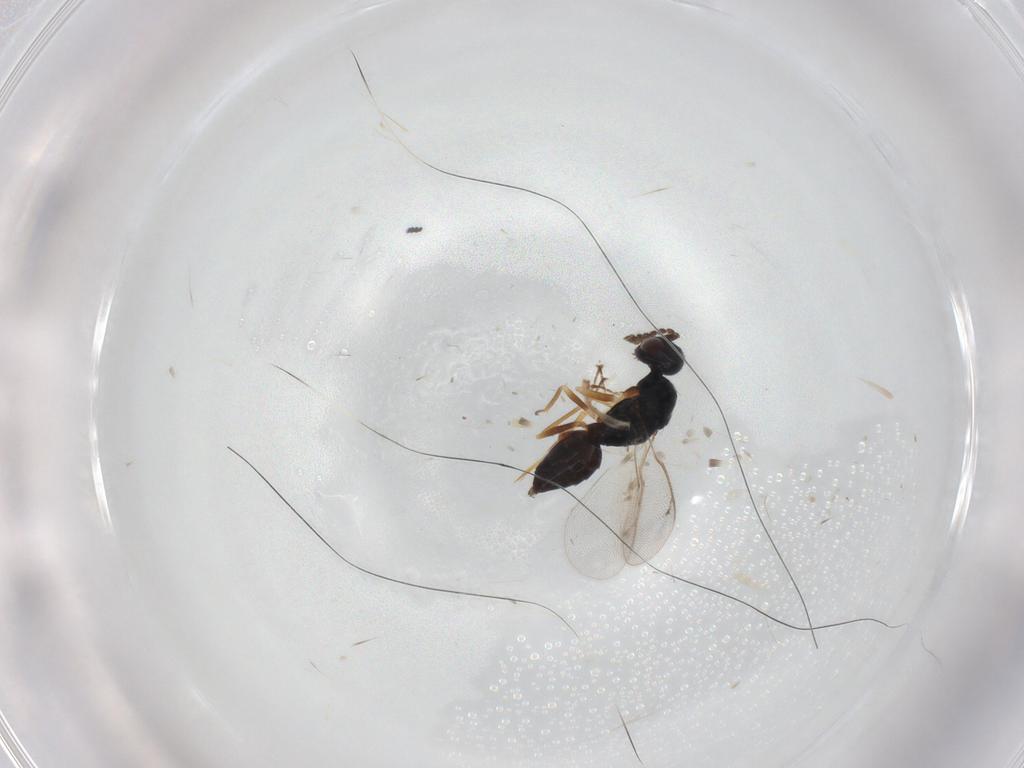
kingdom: Animalia
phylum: Arthropoda
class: Insecta
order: Hymenoptera
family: Eulophidae
